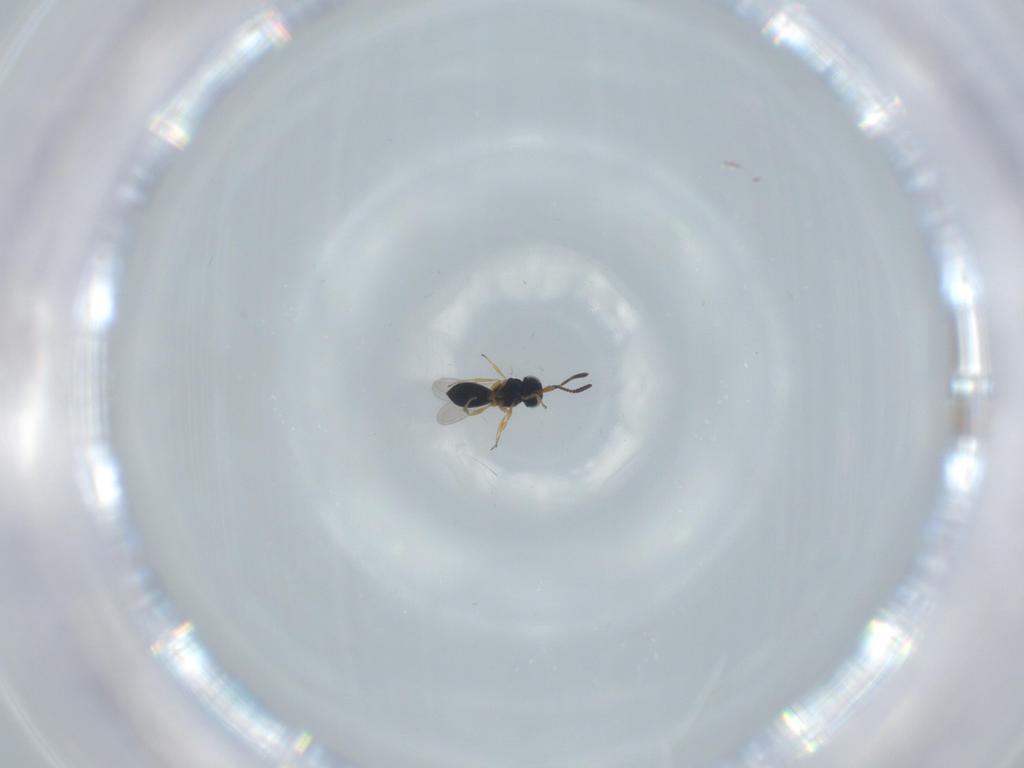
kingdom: Animalia
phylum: Arthropoda
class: Insecta
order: Hymenoptera
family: Scelionidae
